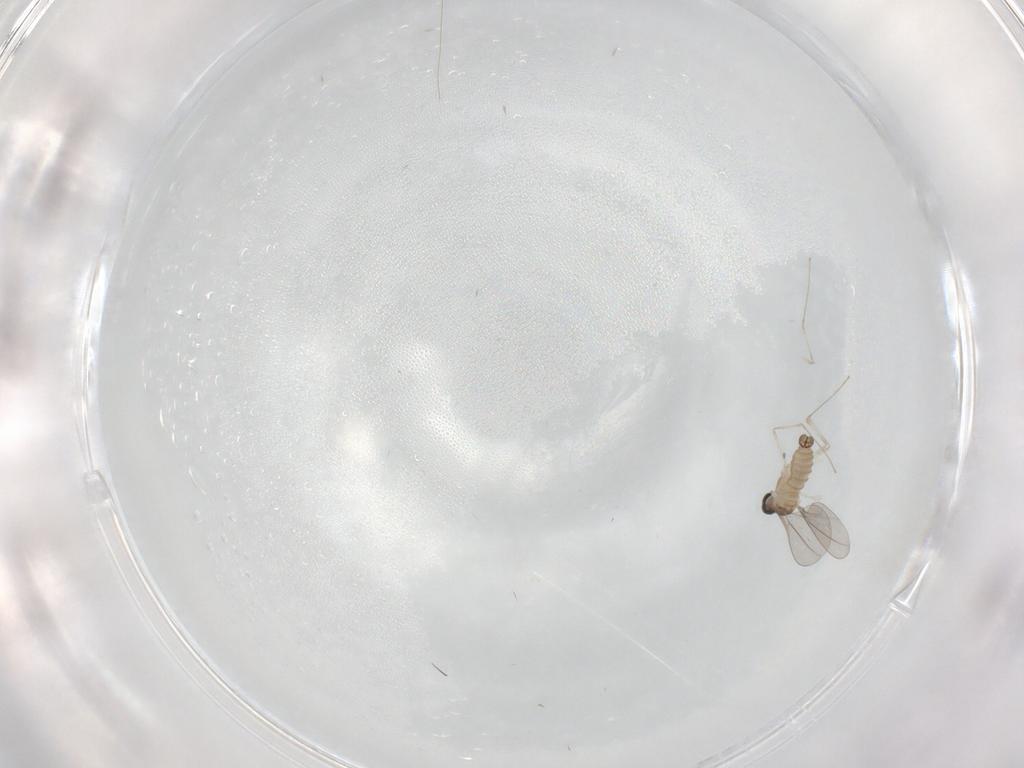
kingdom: Animalia
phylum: Arthropoda
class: Insecta
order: Diptera
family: Cecidomyiidae
